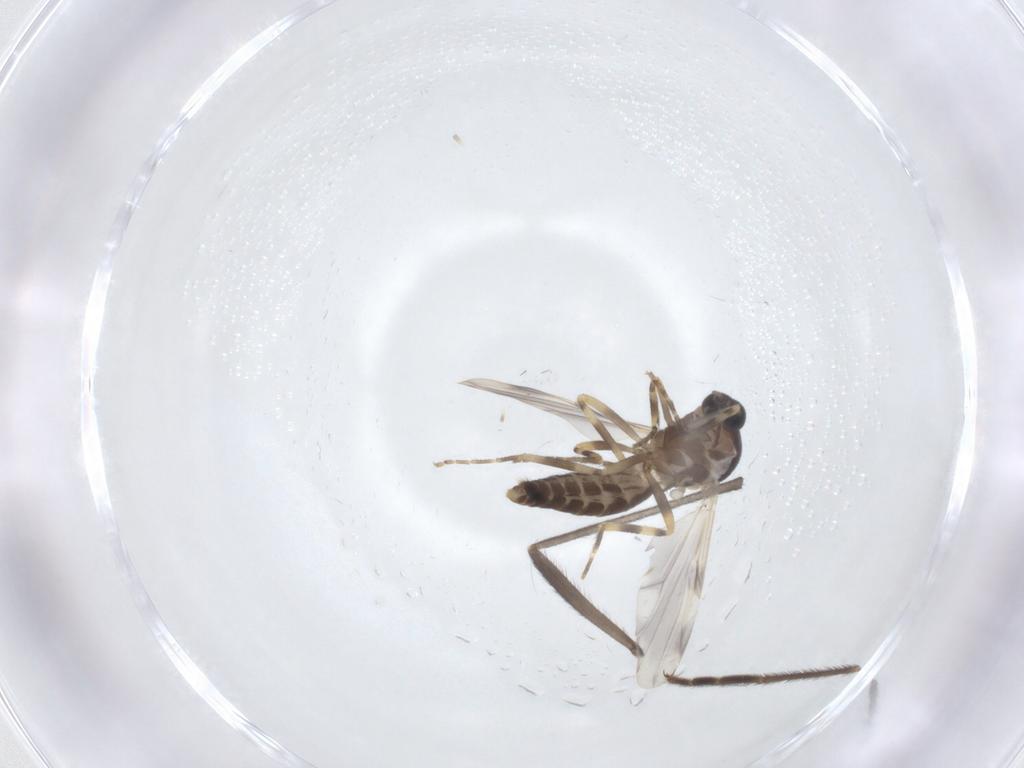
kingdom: Animalia
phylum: Arthropoda
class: Insecta
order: Diptera
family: Ceratopogonidae
